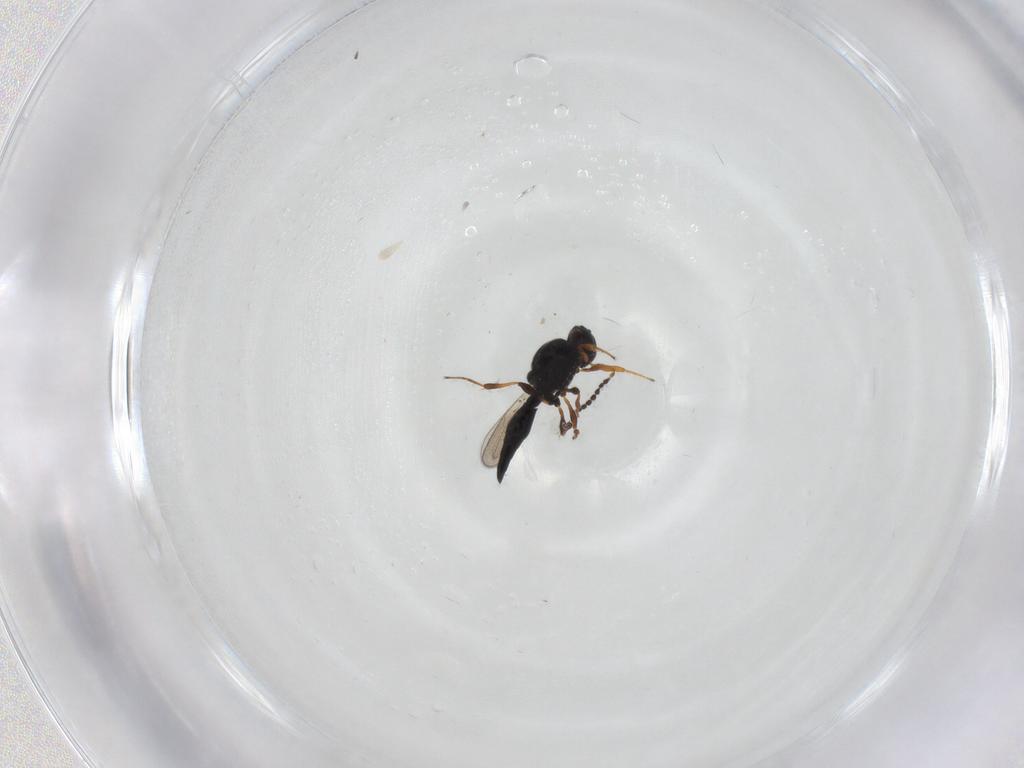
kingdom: Animalia
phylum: Arthropoda
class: Insecta
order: Hymenoptera
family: Platygastridae
